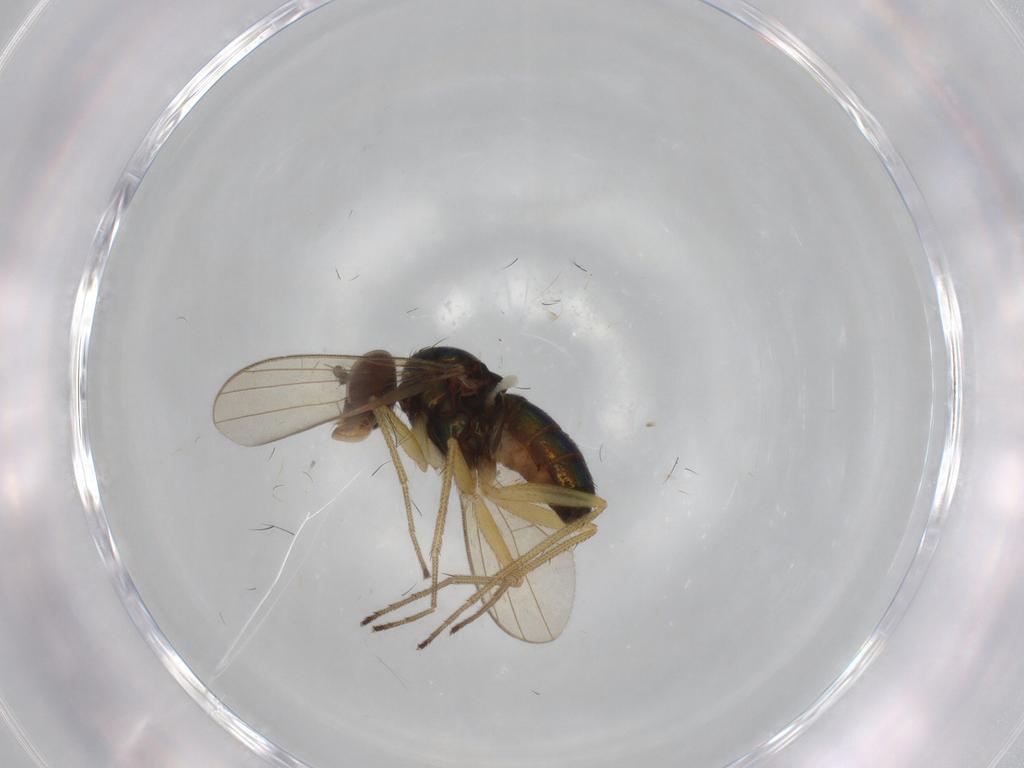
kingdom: Animalia
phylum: Arthropoda
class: Insecta
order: Diptera
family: Dolichopodidae
